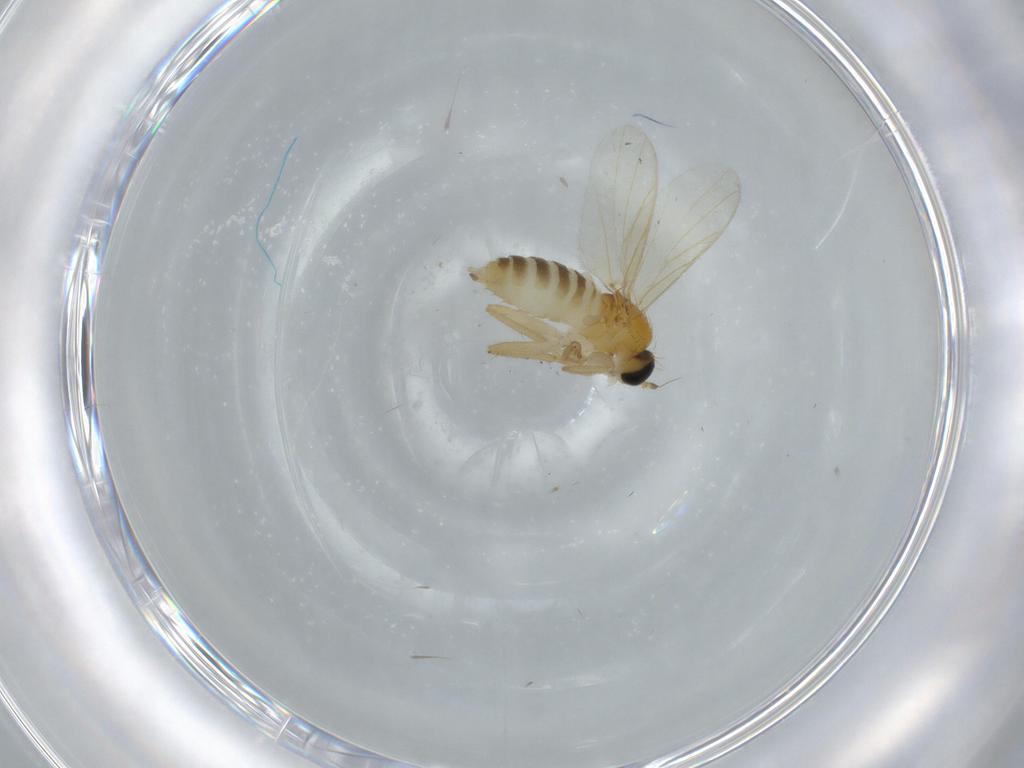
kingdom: Animalia
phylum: Arthropoda
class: Insecta
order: Diptera
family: Hybotidae
